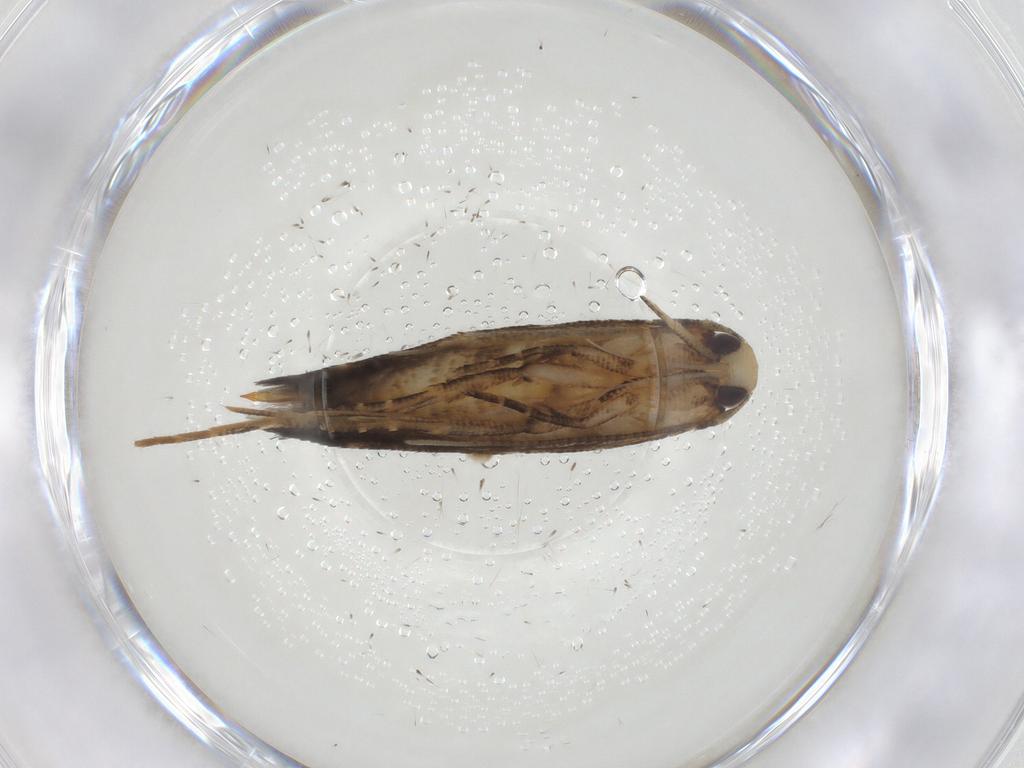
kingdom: Animalia
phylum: Arthropoda
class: Insecta
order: Lepidoptera
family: Cosmopterigidae
